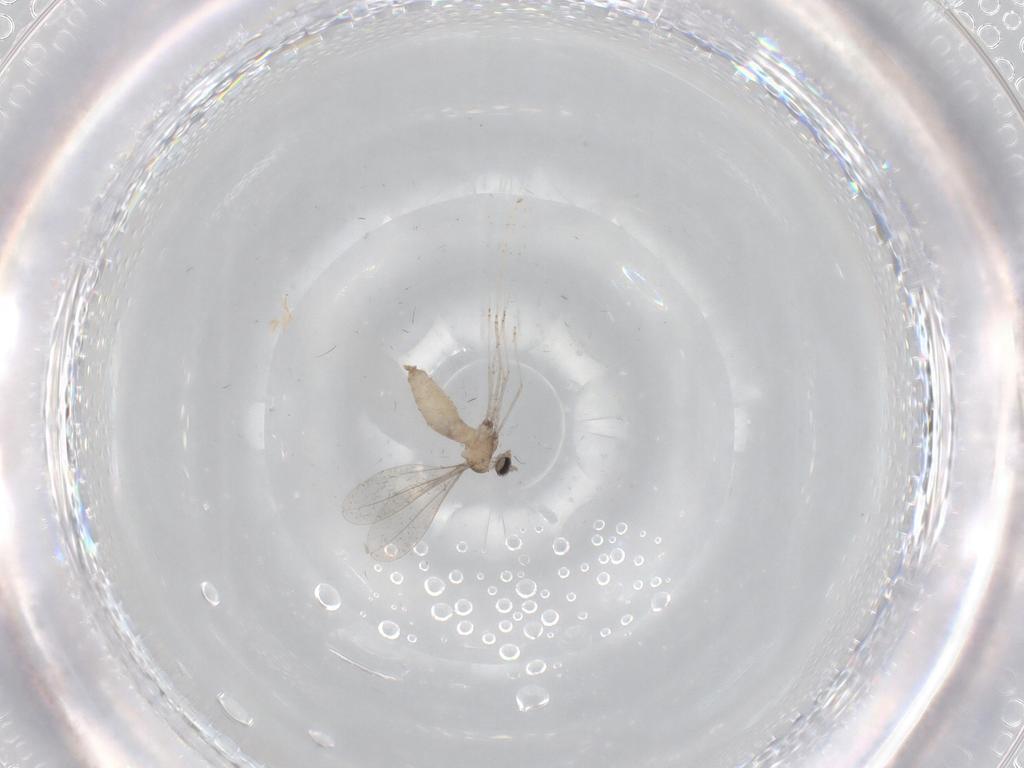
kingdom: Animalia
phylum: Arthropoda
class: Insecta
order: Diptera
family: Cecidomyiidae
